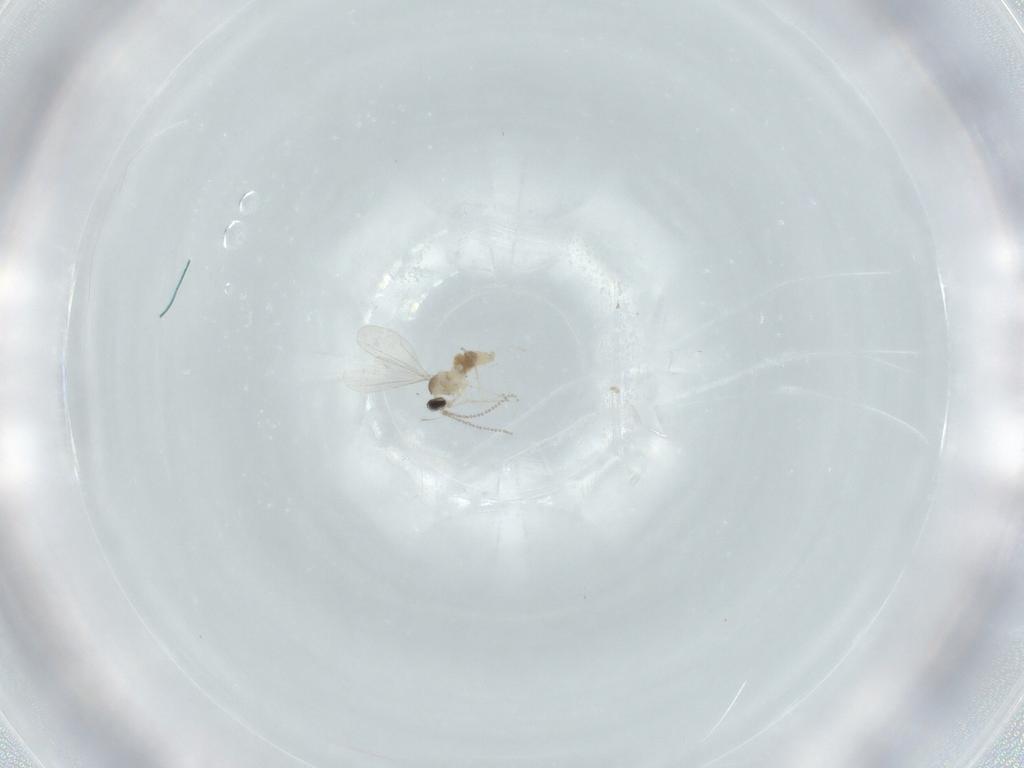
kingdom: Animalia
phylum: Arthropoda
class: Insecta
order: Diptera
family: Cecidomyiidae
